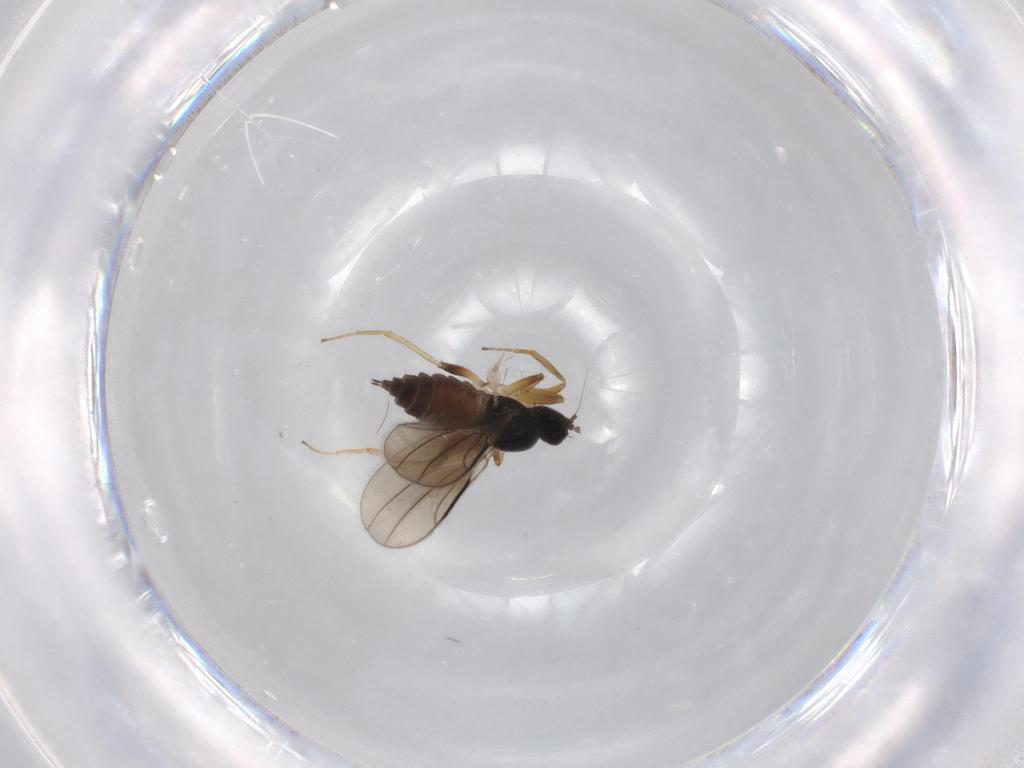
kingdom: Animalia
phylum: Arthropoda
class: Insecta
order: Diptera
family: Hybotidae
